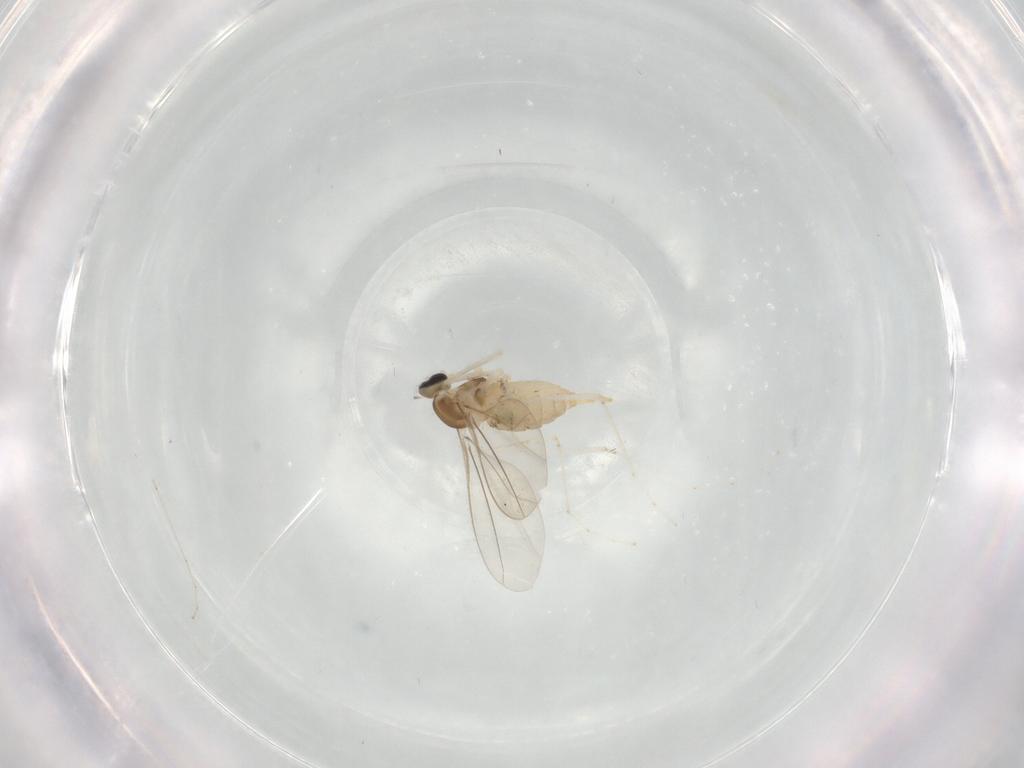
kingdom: Animalia
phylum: Arthropoda
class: Insecta
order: Diptera
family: Cecidomyiidae
